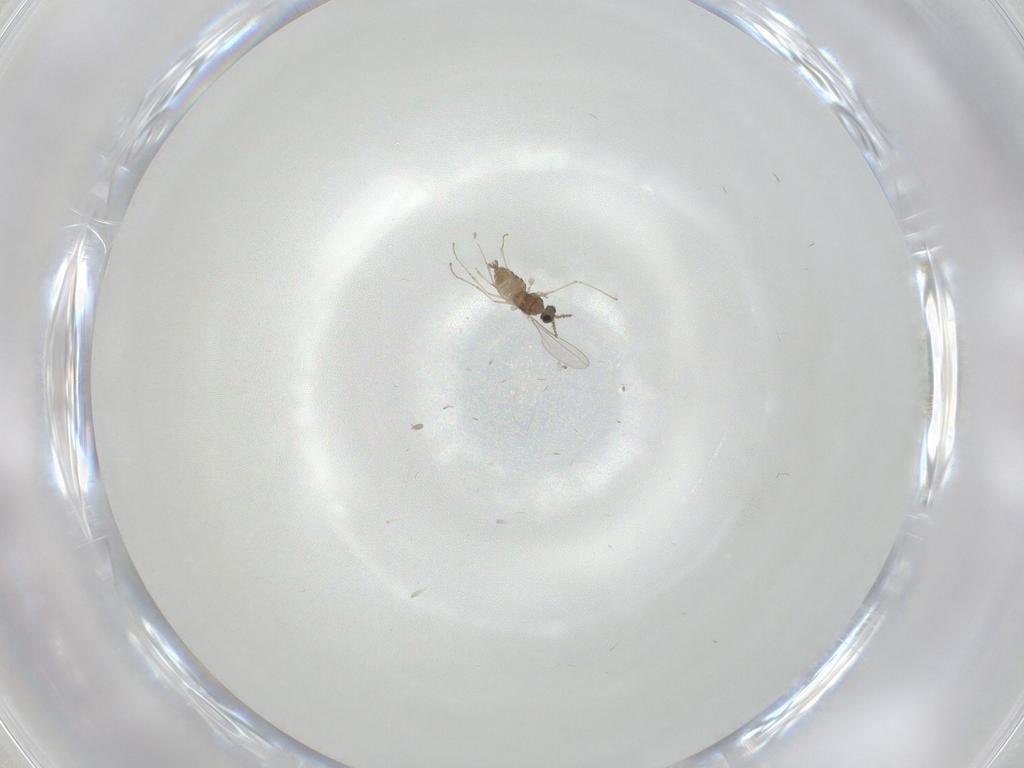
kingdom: Animalia
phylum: Arthropoda
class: Insecta
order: Diptera
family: Cecidomyiidae
